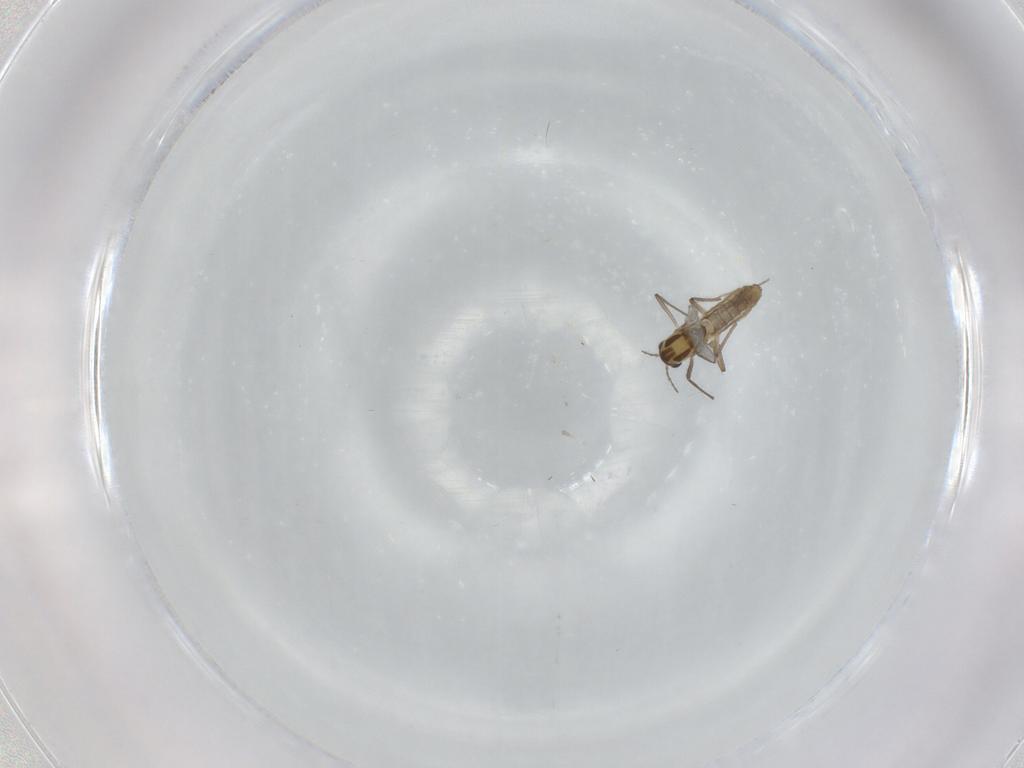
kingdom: Animalia
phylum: Arthropoda
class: Insecta
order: Diptera
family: Chironomidae
